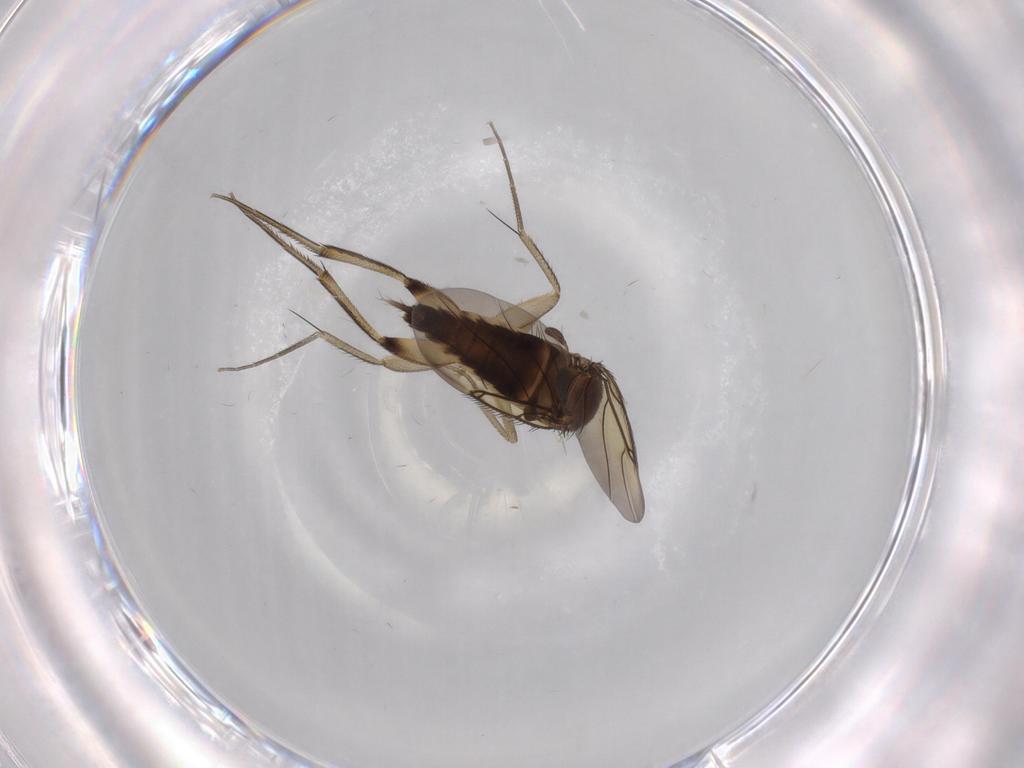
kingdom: Animalia
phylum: Arthropoda
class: Insecta
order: Diptera
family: Phoridae
